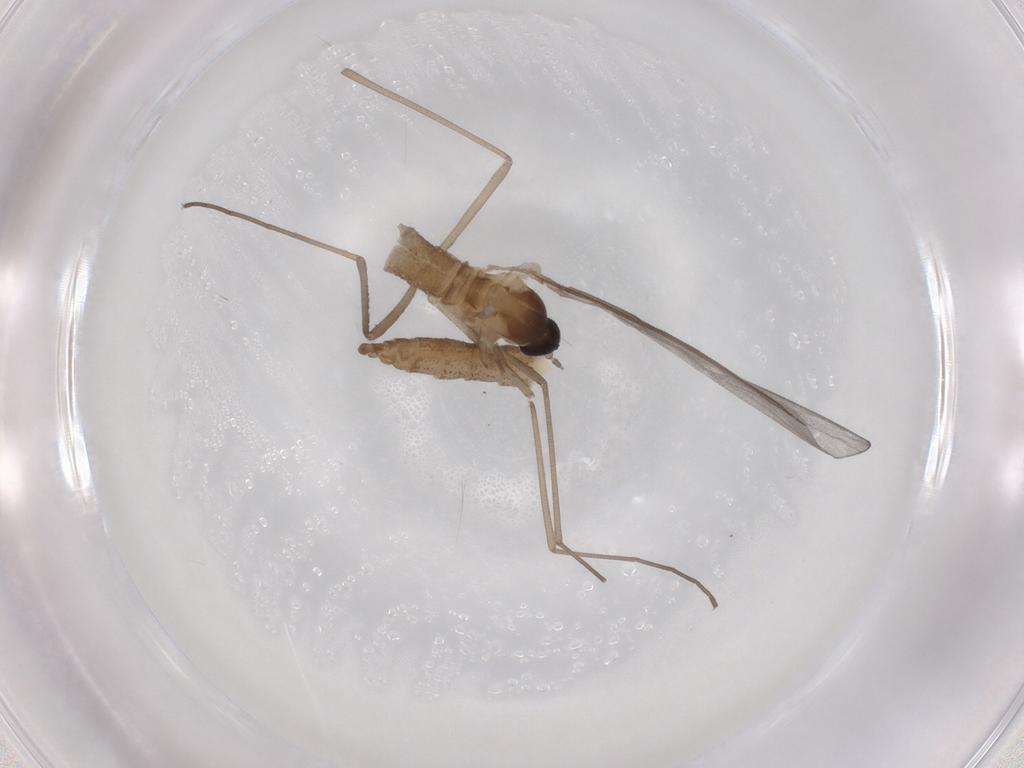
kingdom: Animalia
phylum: Arthropoda
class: Insecta
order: Diptera
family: Cecidomyiidae
